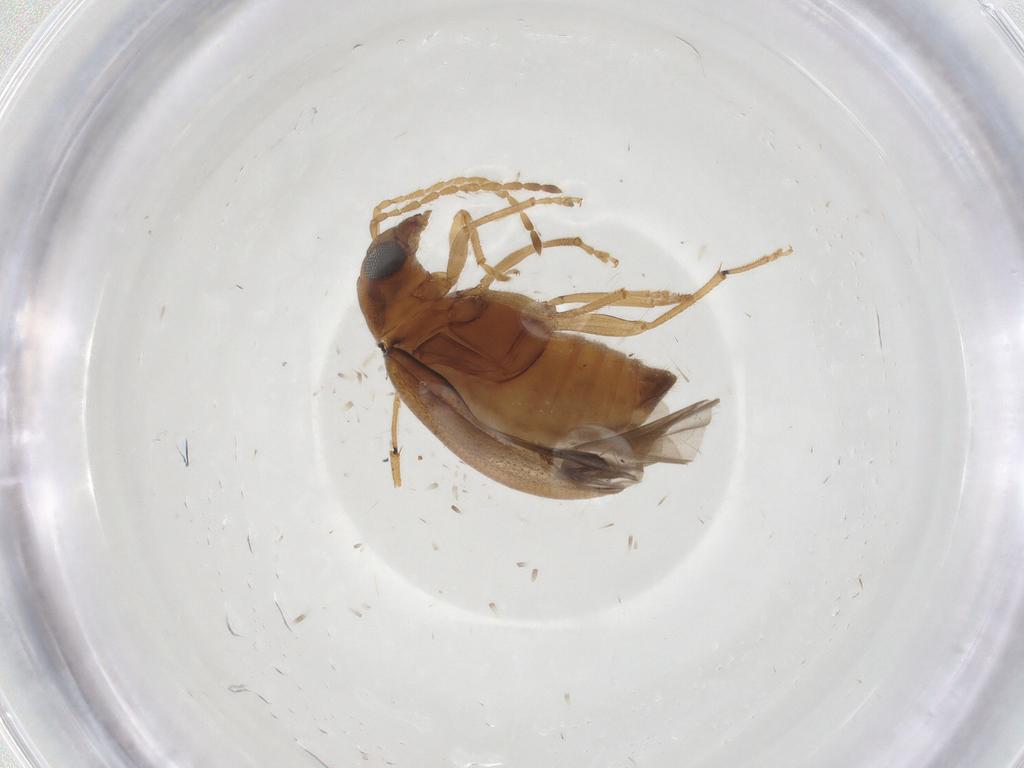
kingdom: Animalia
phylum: Arthropoda
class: Insecta
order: Coleoptera
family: Chrysomelidae
